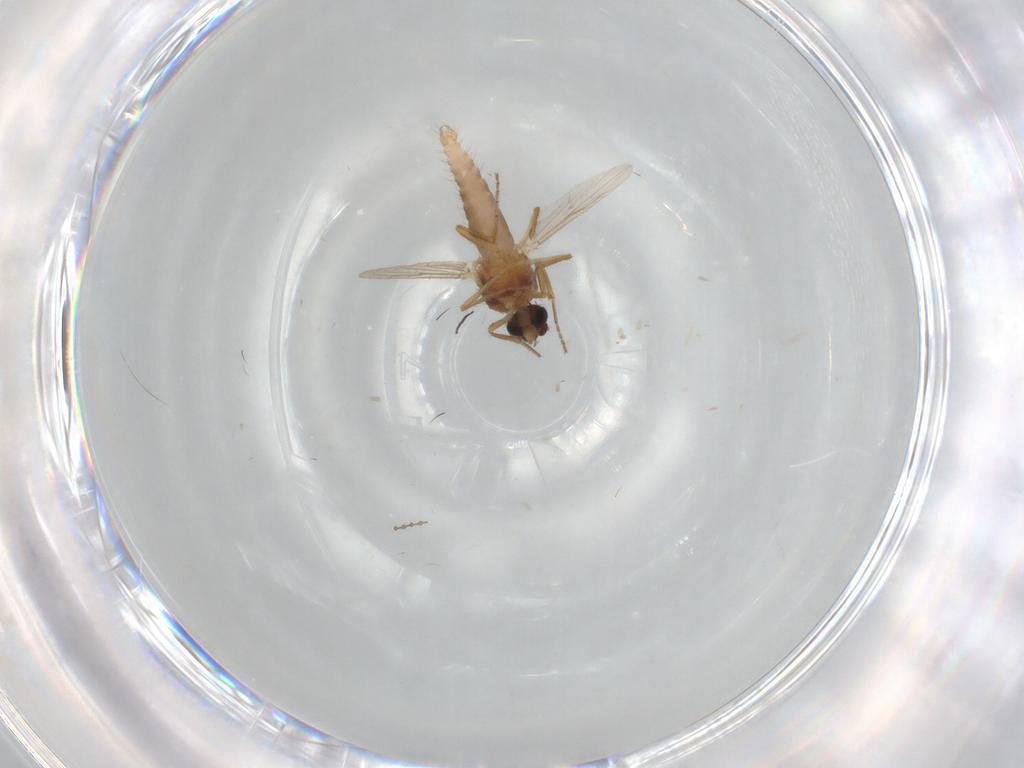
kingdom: Animalia
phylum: Arthropoda
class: Insecta
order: Diptera
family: Ceratopogonidae
